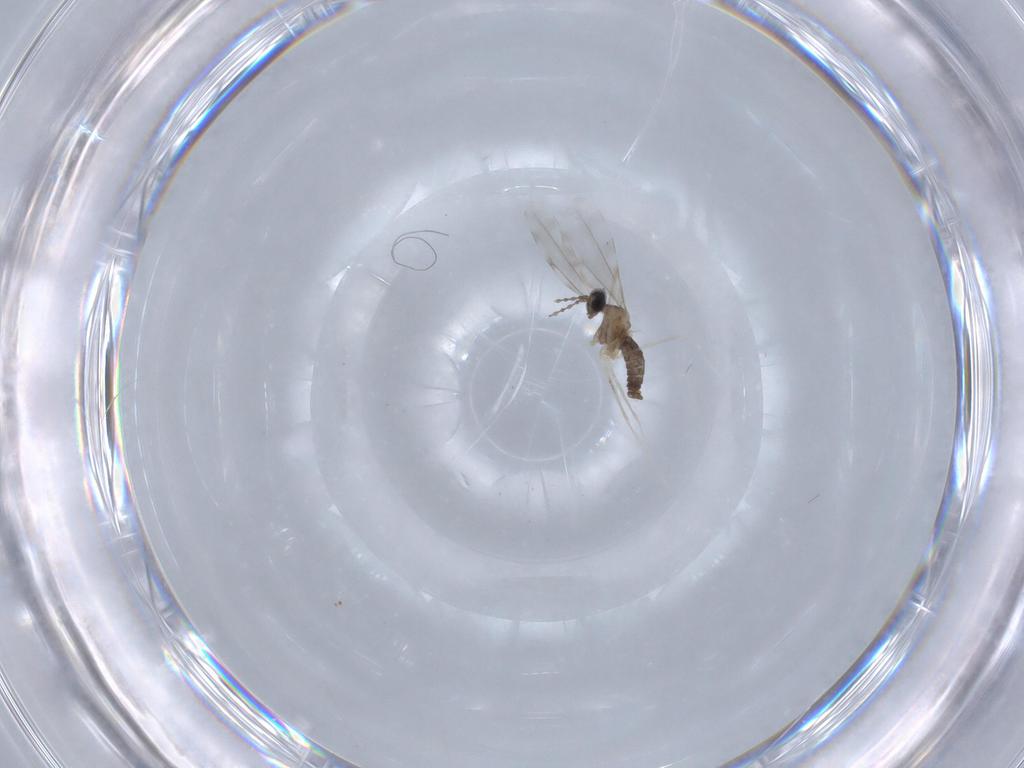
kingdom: Animalia
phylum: Arthropoda
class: Insecta
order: Diptera
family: Cecidomyiidae
